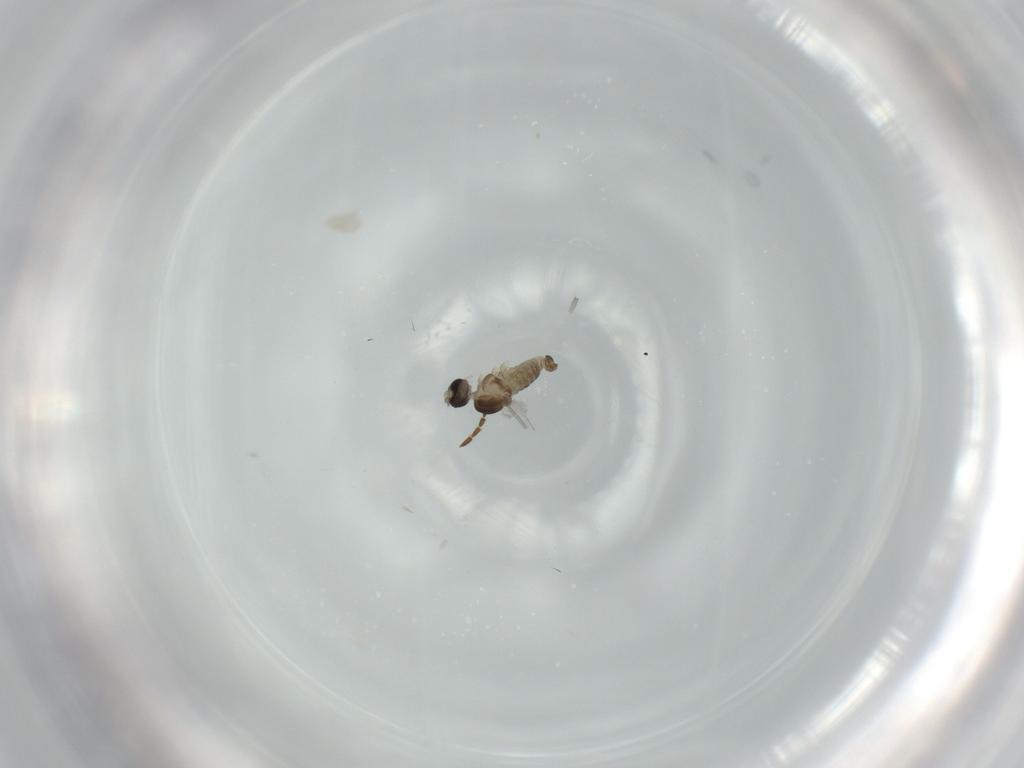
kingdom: Animalia
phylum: Arthropoda
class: Insecta
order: Diptera
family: Cecidomyiidae
